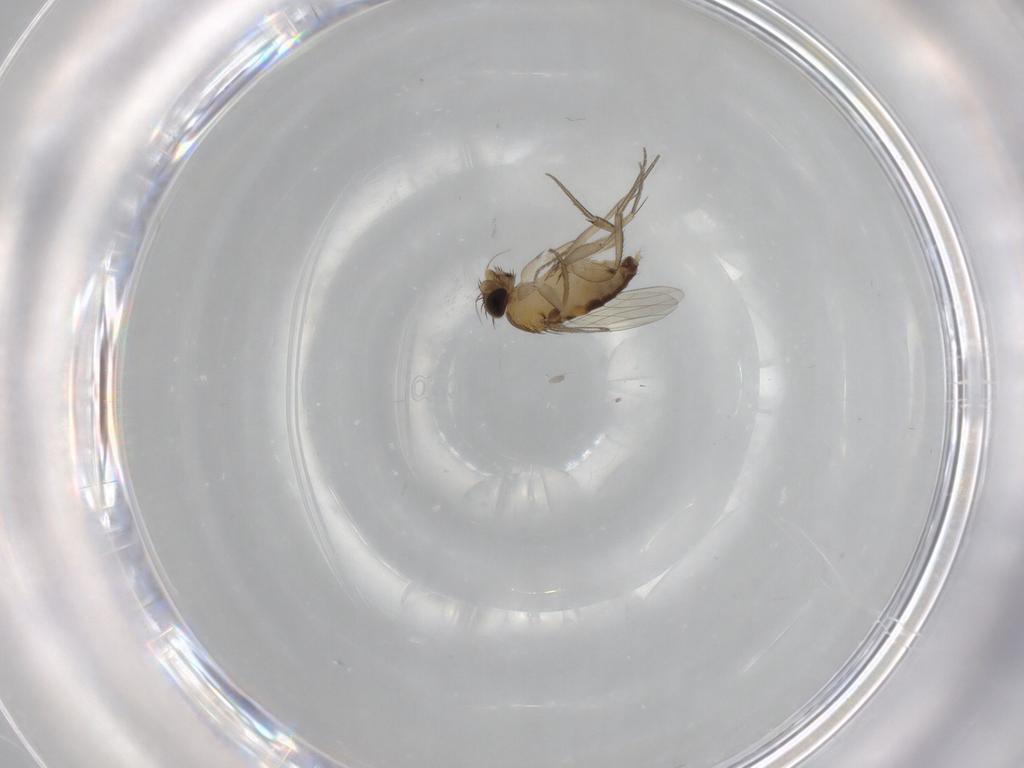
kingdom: Animalia
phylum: Arthropoda
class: Insecta
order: Diptera
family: Phoridae
